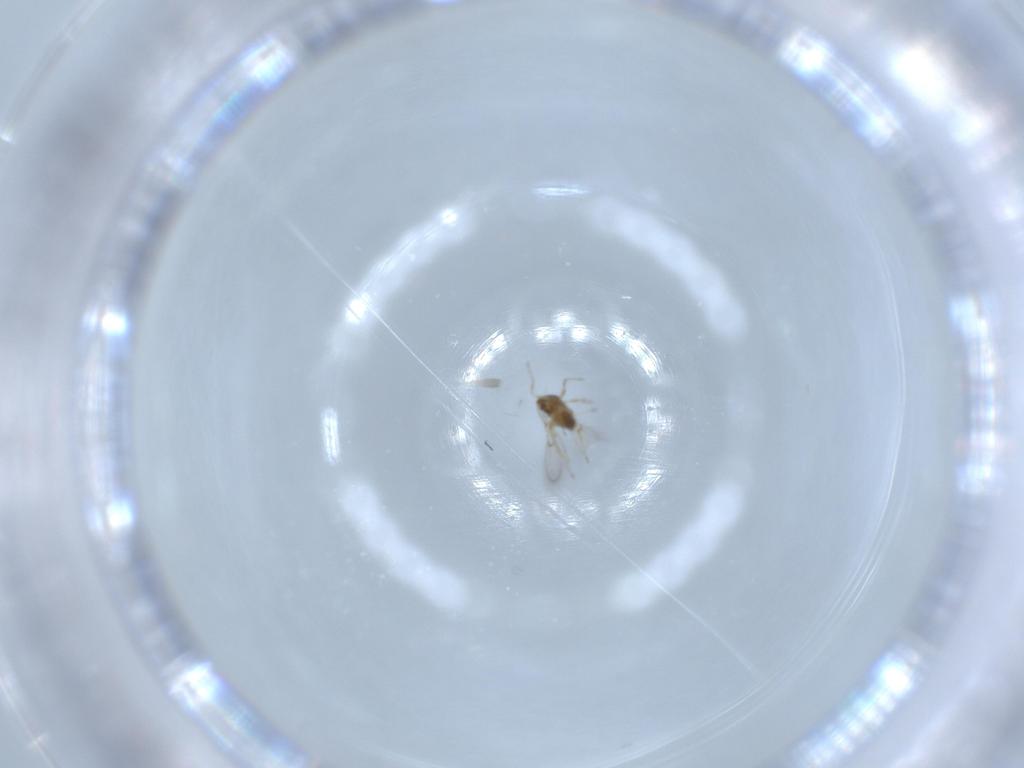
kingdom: Animalia
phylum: Arthropoda
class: Insecta
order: Hymenoptera
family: Trichogrammatidae
